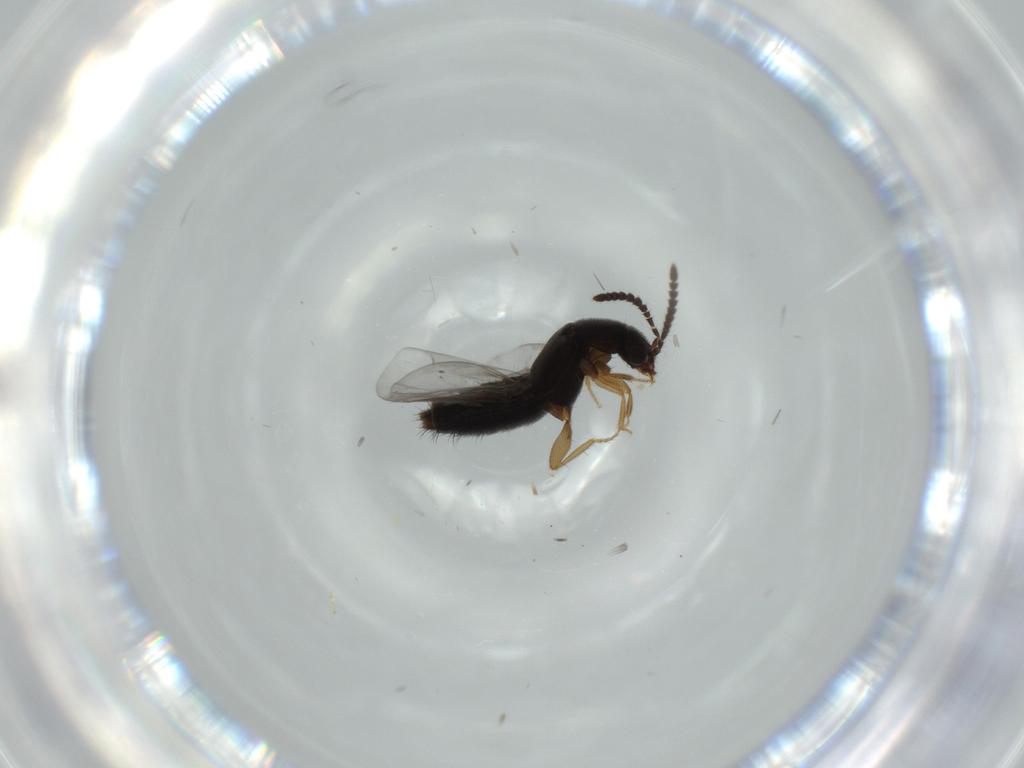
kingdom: Animalia
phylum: Arthropoda
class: Insecta
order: Coleoptera
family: Staphylinidae
